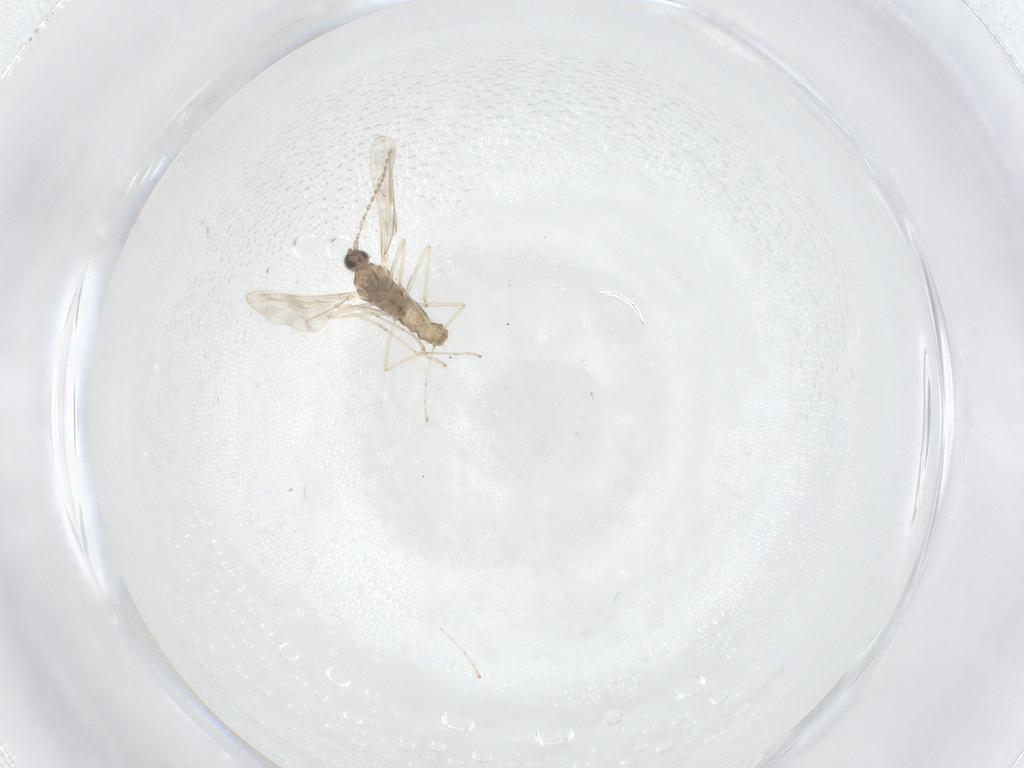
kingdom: Animalia
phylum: Arthropoda
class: Insecta
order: Diptera
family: Cecidomyiidae
